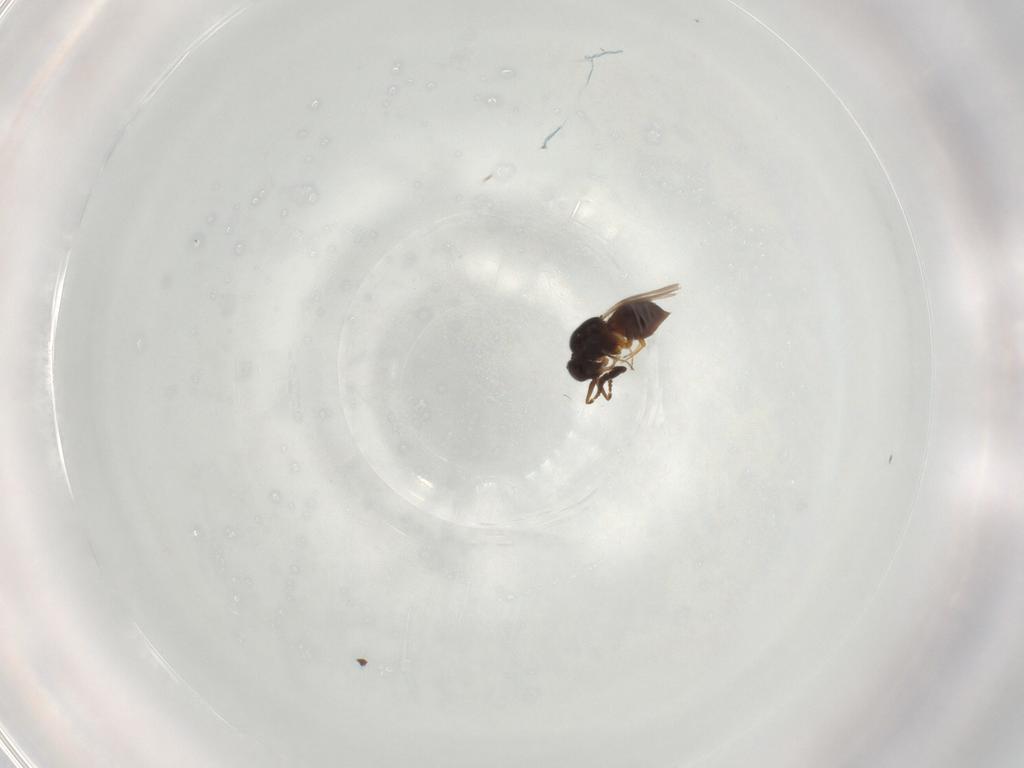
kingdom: Animalia
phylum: Arthropoda
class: Insecta
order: Hymenoptera
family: Ceraphronidae
